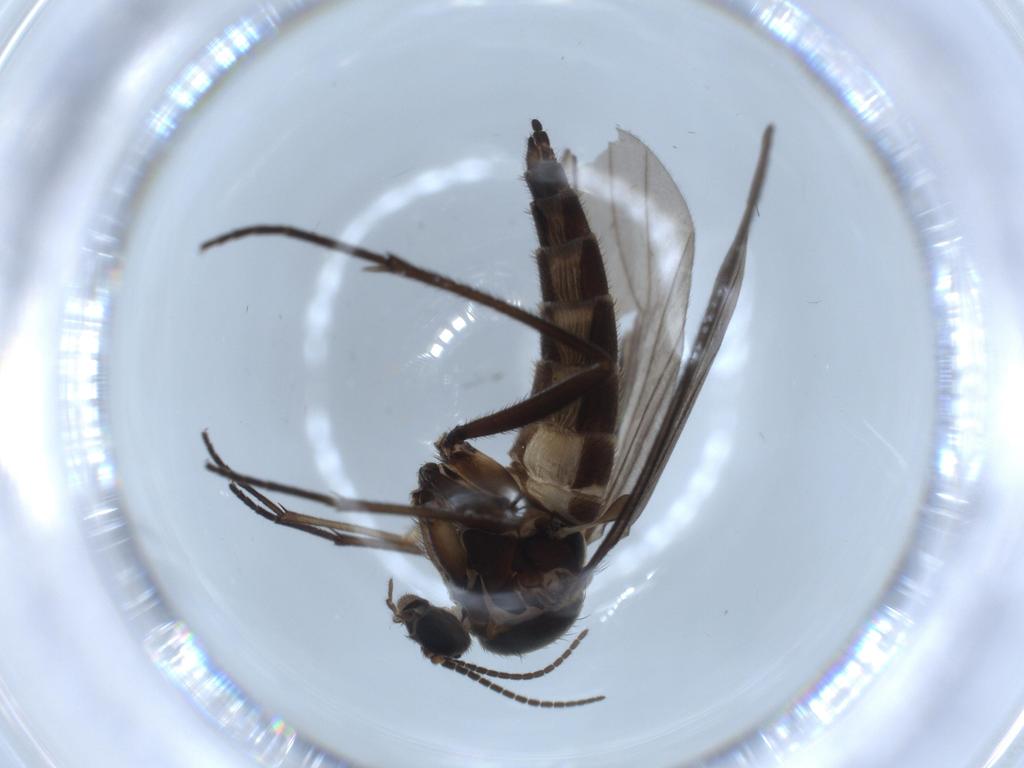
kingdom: Animalia
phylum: Arthropoda
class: Insecta
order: Diptera
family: Sciaridae
